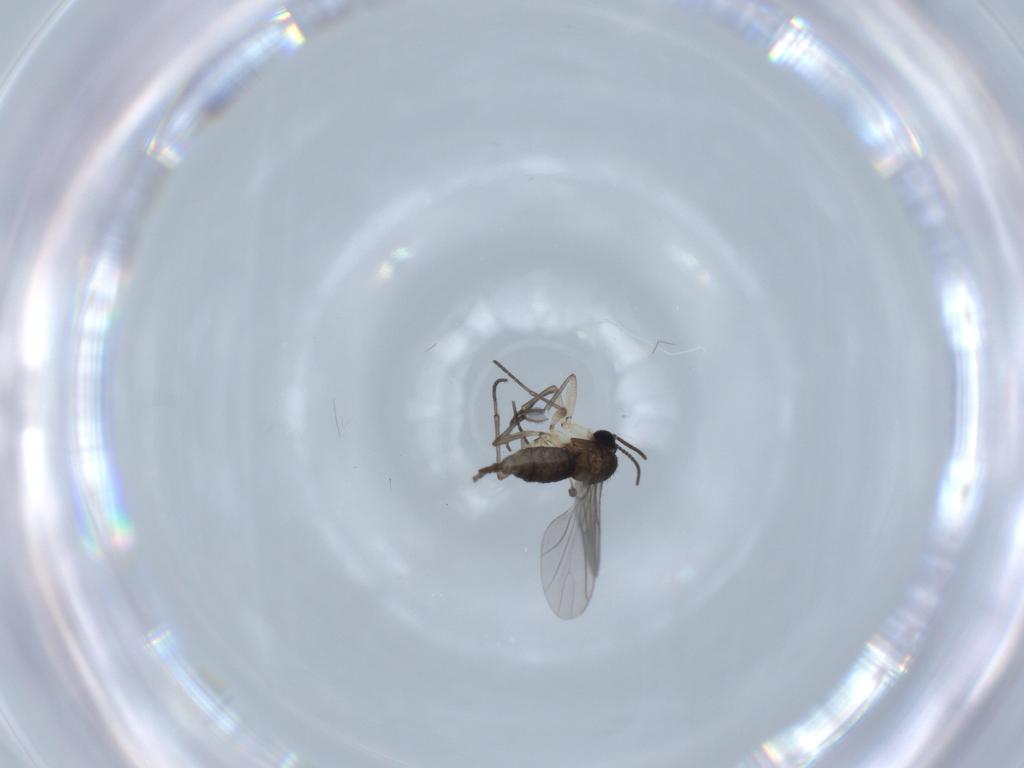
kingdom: Animalia
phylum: Arthropoda
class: Insecta
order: Diptera
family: Sciaridae
